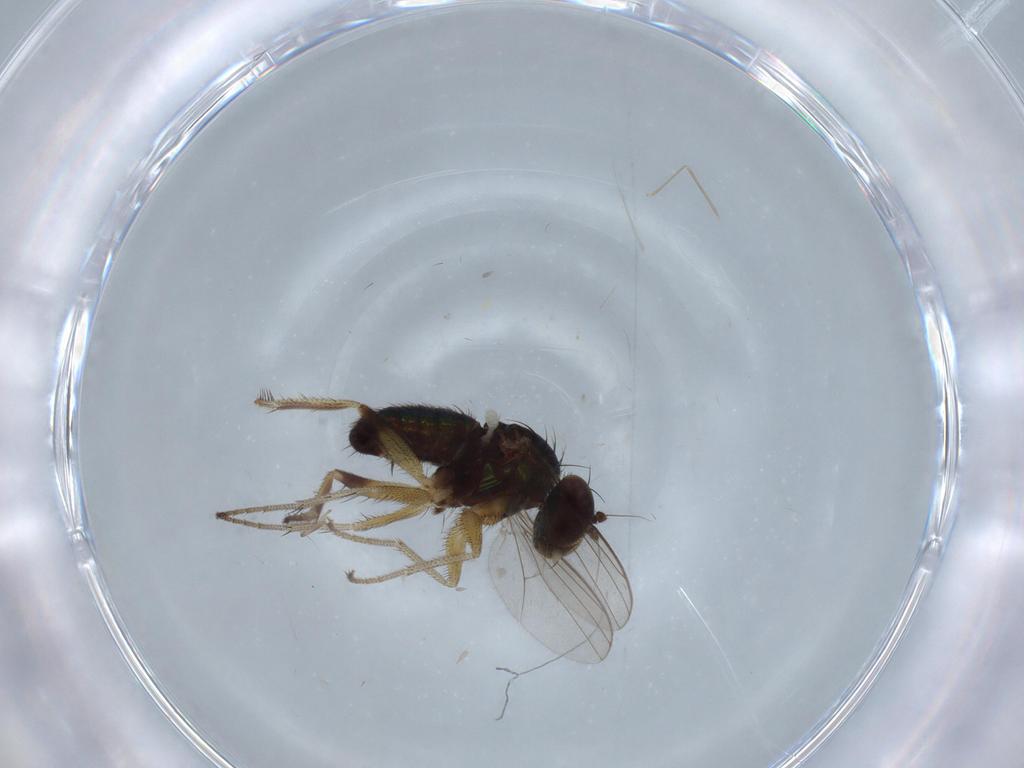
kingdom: Animalia
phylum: Arthropoda
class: Insecta
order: Diptera
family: Dolichopodidae
